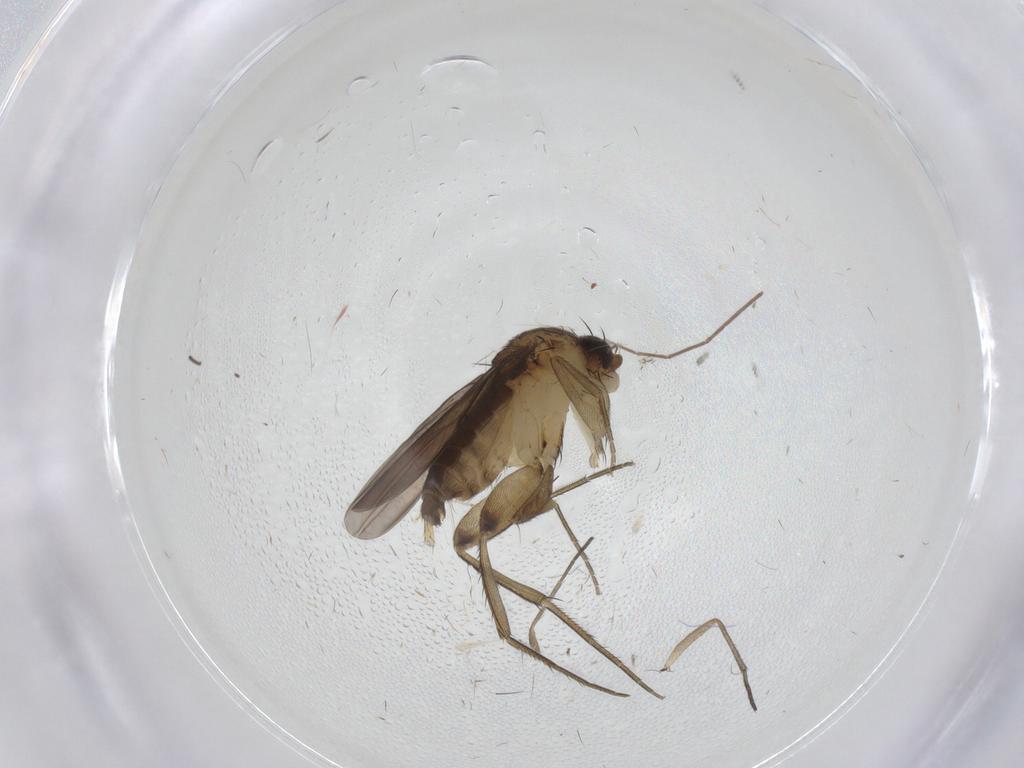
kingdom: Animalia
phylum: Arthropoda
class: Insecta
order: Diptera
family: Phoridae
